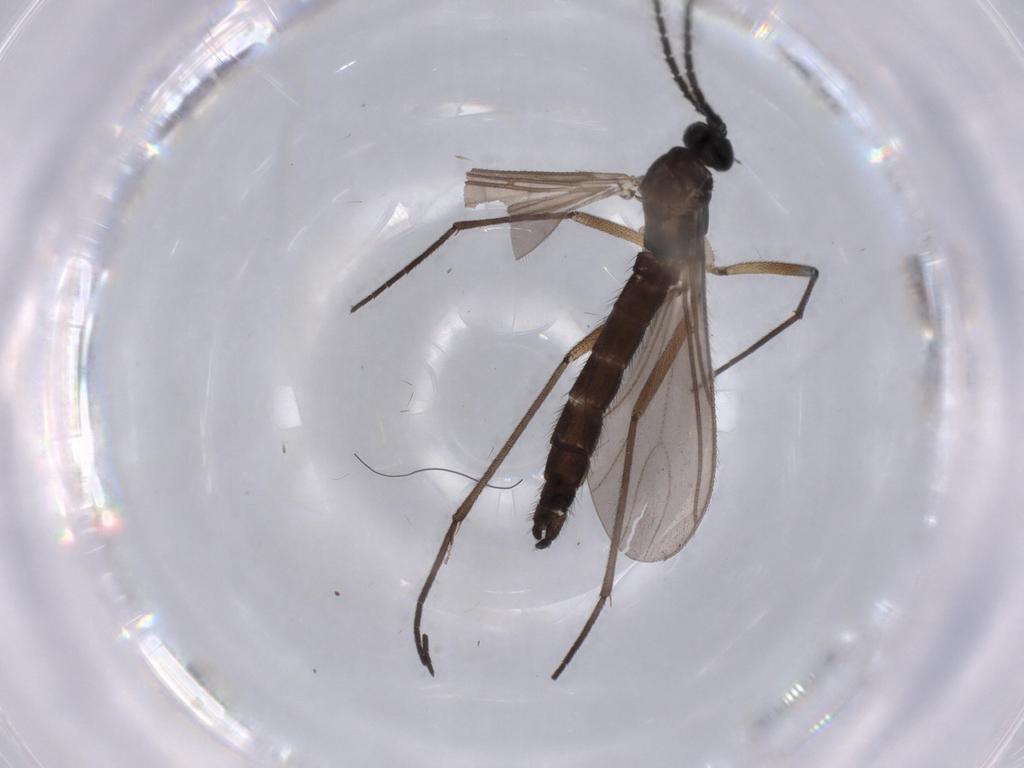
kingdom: Animalia
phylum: Arthropoda
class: Insecta
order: Diptera
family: Sciaridae
